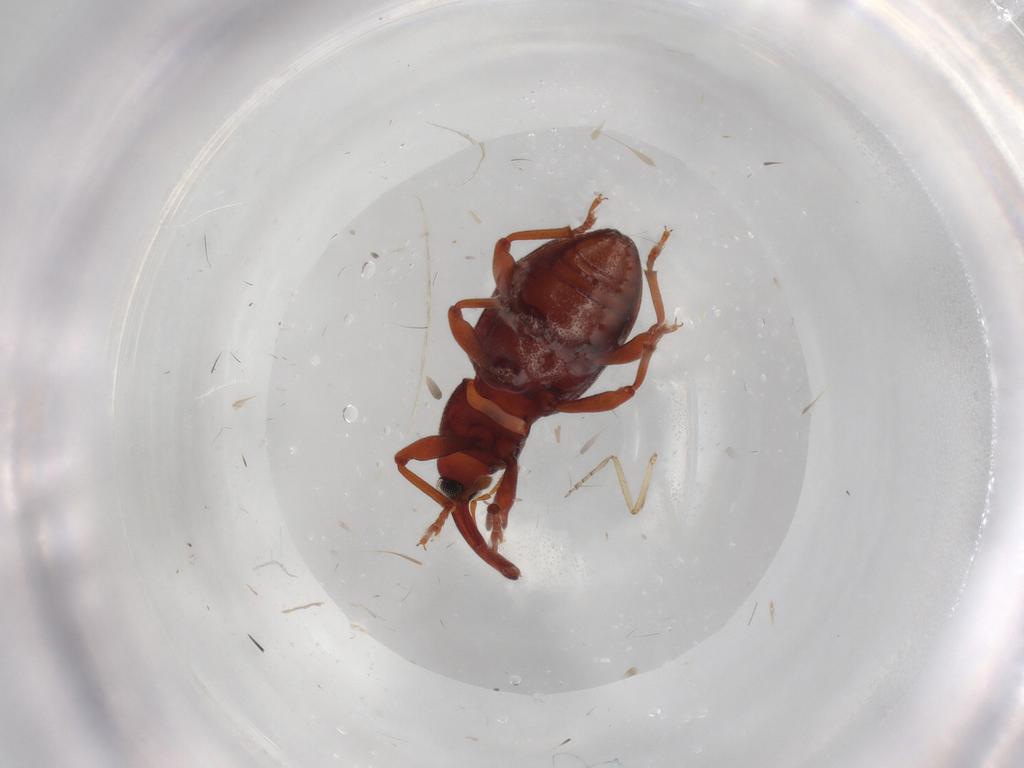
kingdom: Animalia
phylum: Arthropoda
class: Insecta
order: Coleoptera
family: Curculionidae
